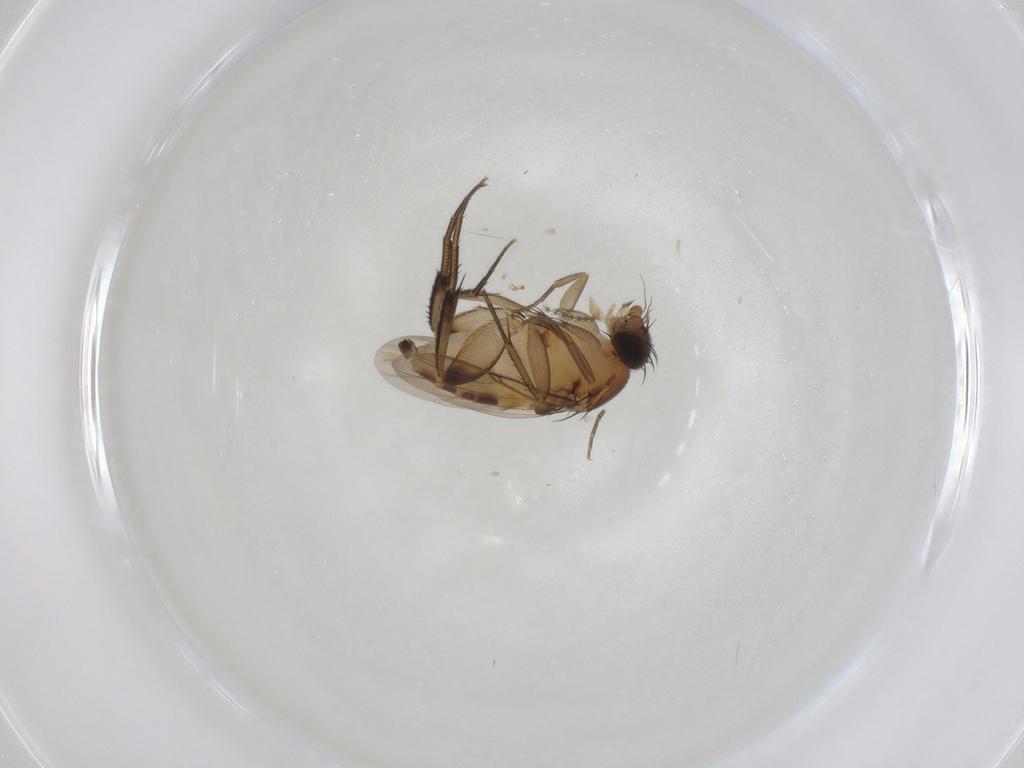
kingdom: Animalia
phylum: Arthropoda
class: Insecta
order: Diptera
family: Phoridae
